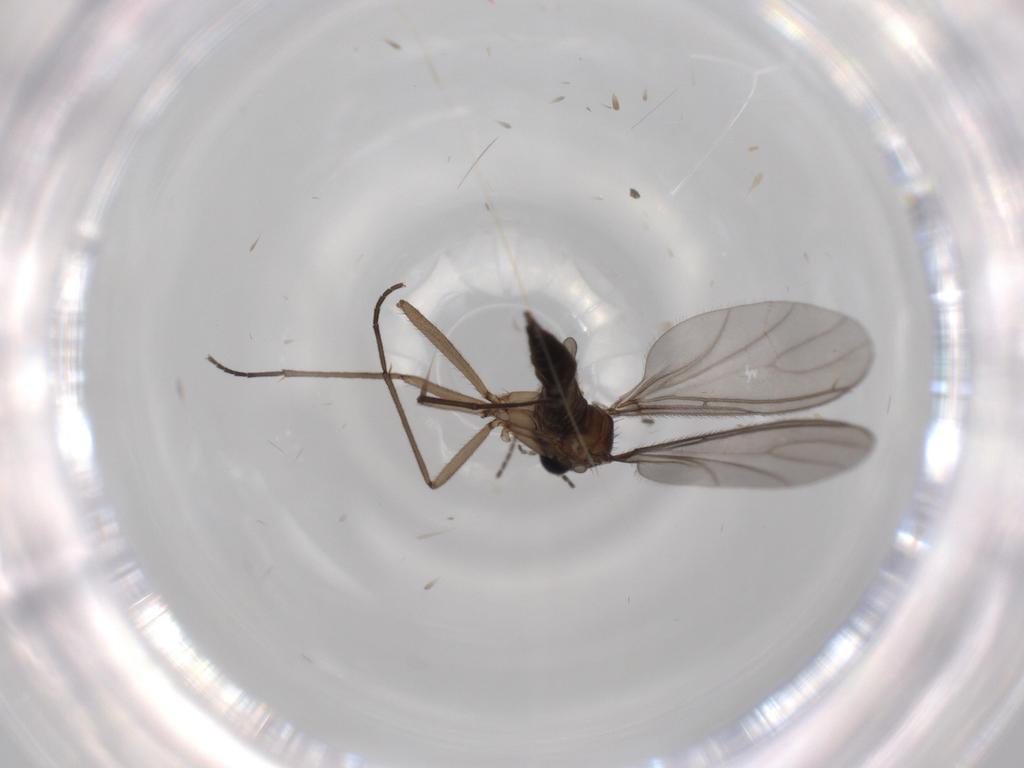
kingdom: Animalia
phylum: Arthropoda
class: Insecta
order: Diptera
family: Sciaridae
